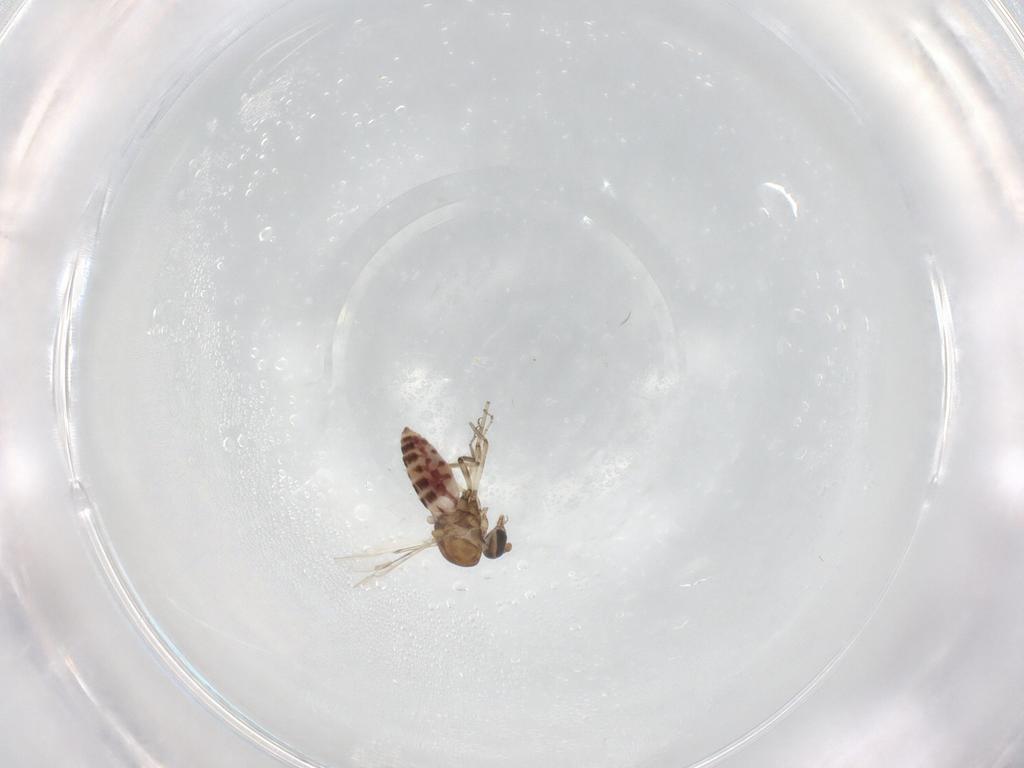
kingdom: Animalia
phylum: Arthropoda
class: Insecta
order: Diptera
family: Ceratopogonidae
